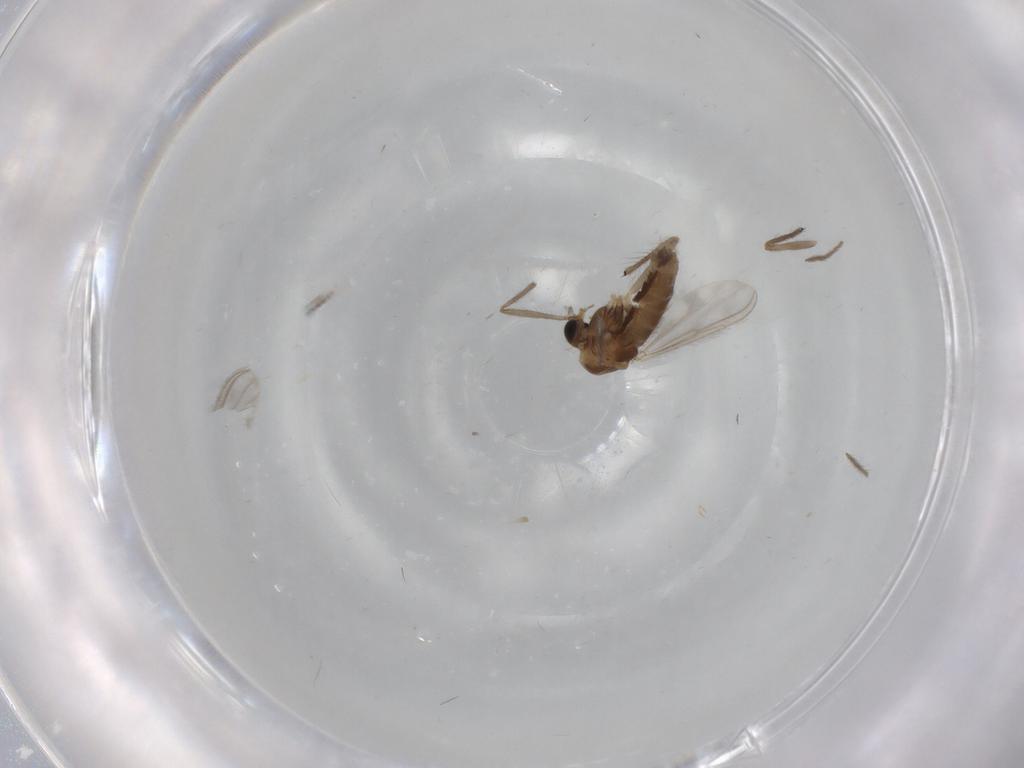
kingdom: Animalia
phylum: Arthropoda
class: Insecta
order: Diptera
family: Chironomidae
